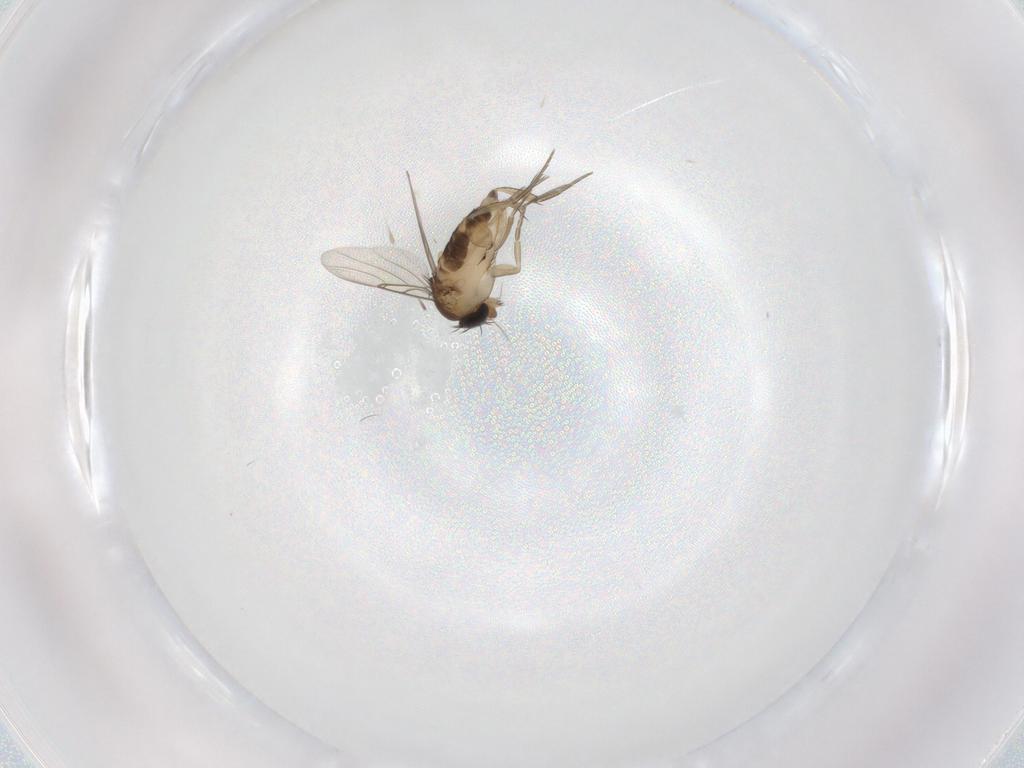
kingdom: Animalia
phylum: Arthropoda
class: Insecta
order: Diptera
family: Phoridae
